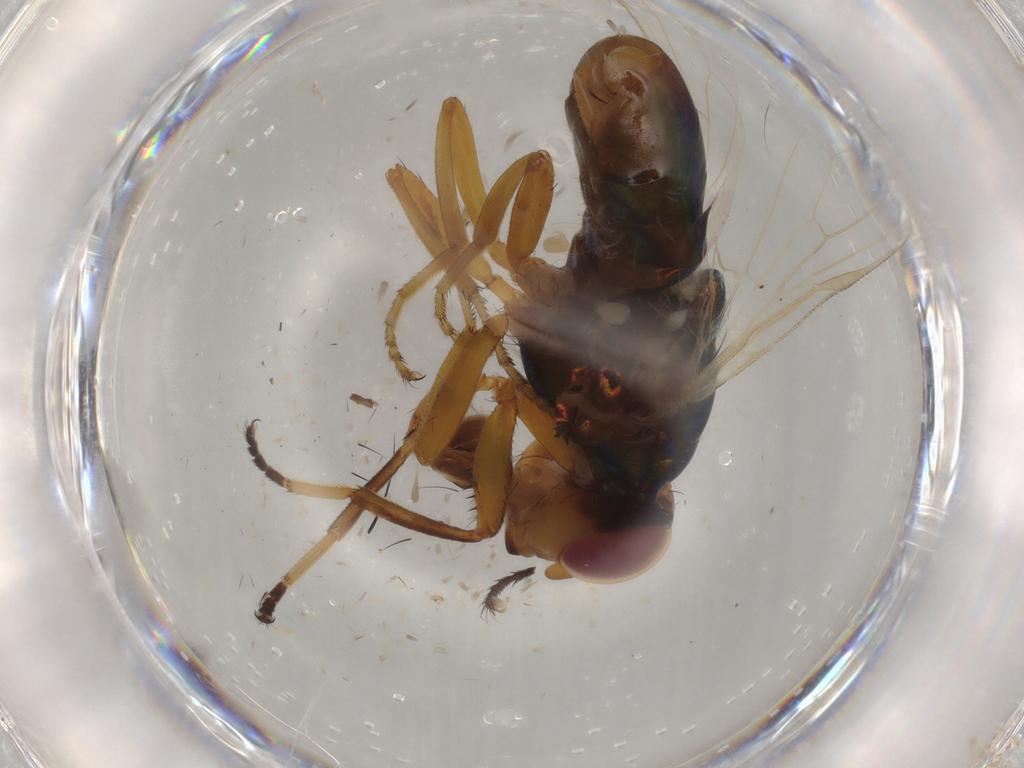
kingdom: Animalia
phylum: Arthropoda
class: Insecta
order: Diptera
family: Ulidiidae
